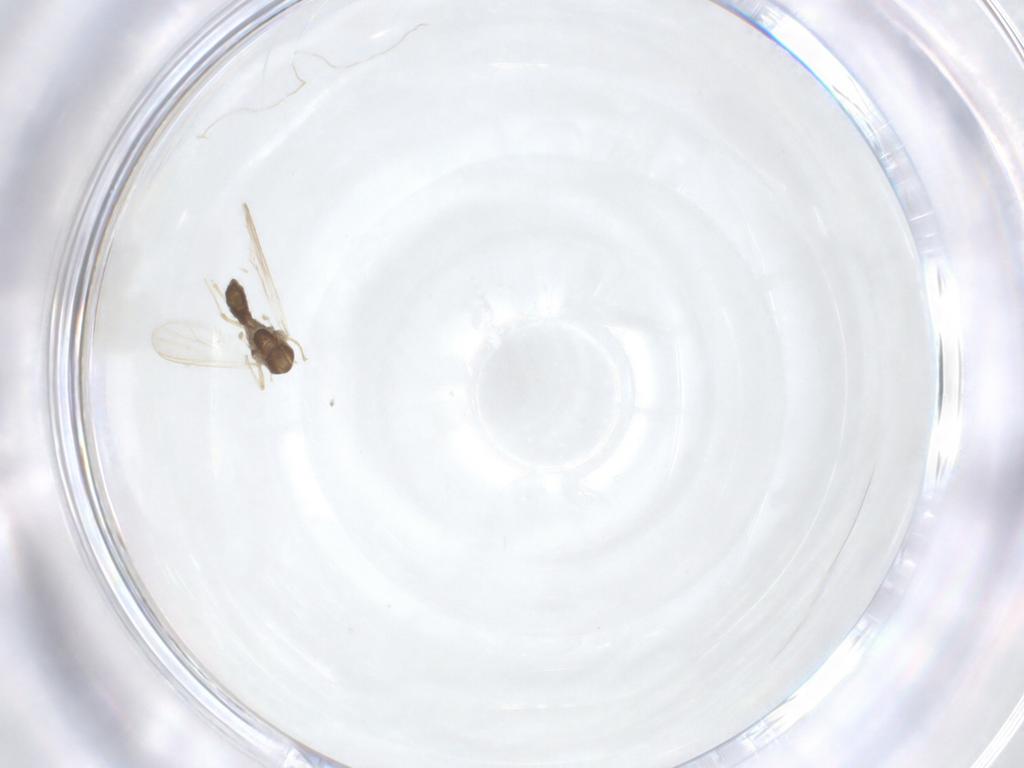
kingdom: Animalia
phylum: Arthropoda
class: Insecta
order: Diptera
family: Chironomidae
